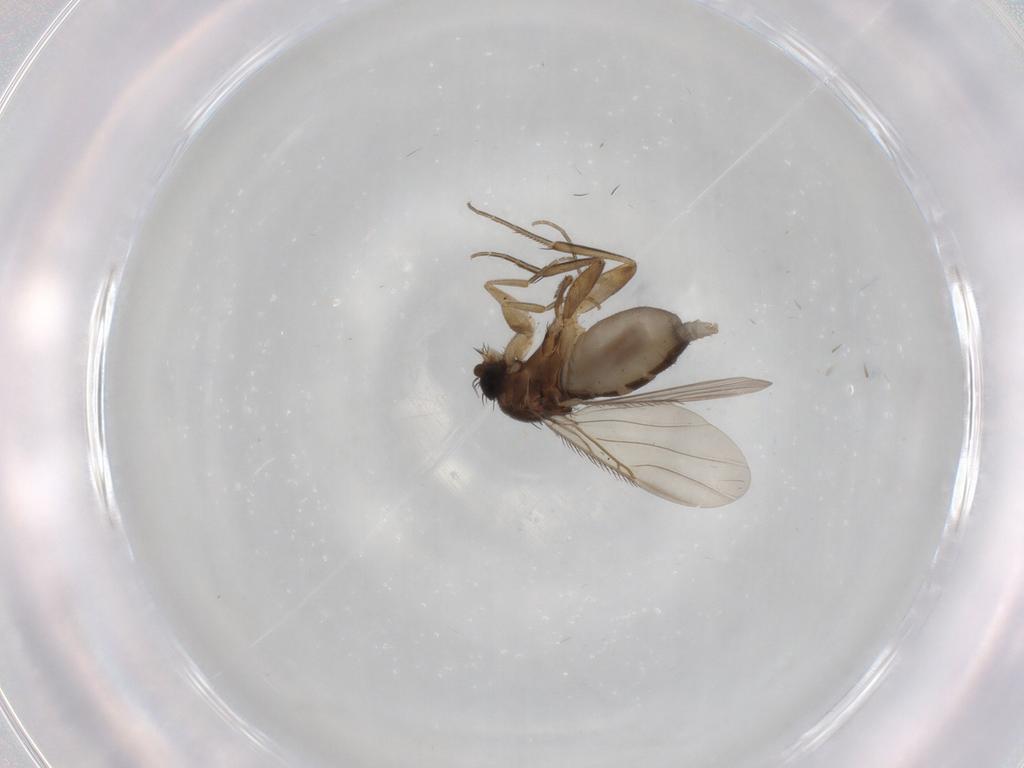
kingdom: Animalia
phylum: Arthropoda
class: Insecta
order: Diptera
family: Phoridae
